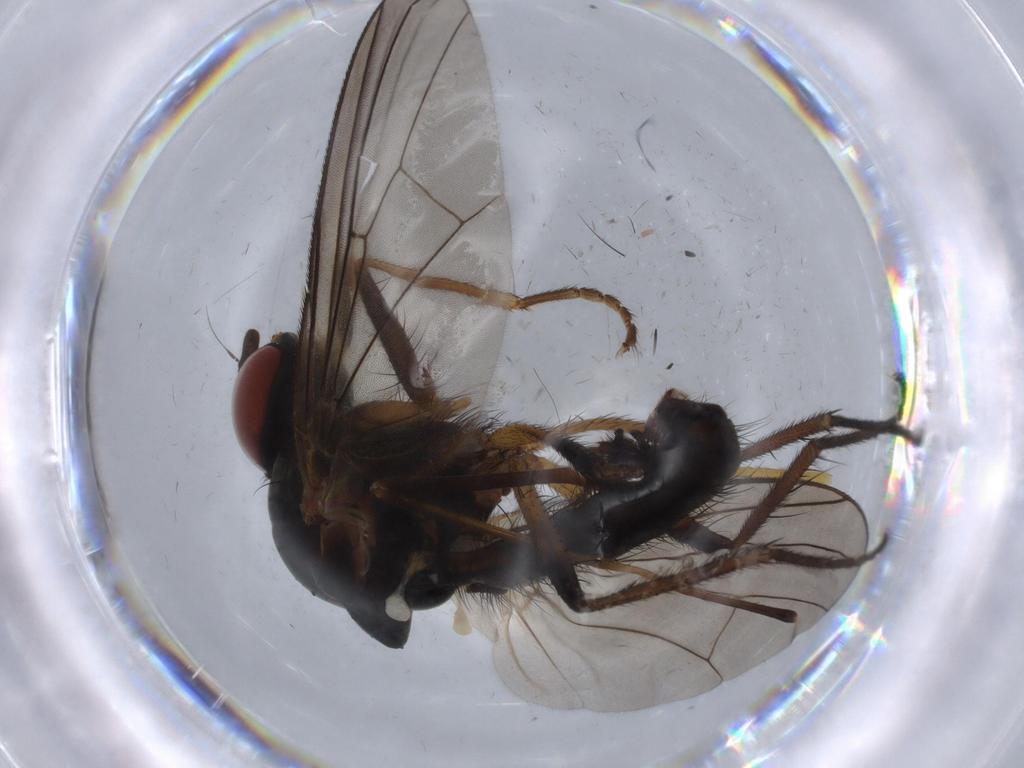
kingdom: Animalia
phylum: Arthropoda
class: Insecta
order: Diptera
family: Anthomyiidae
